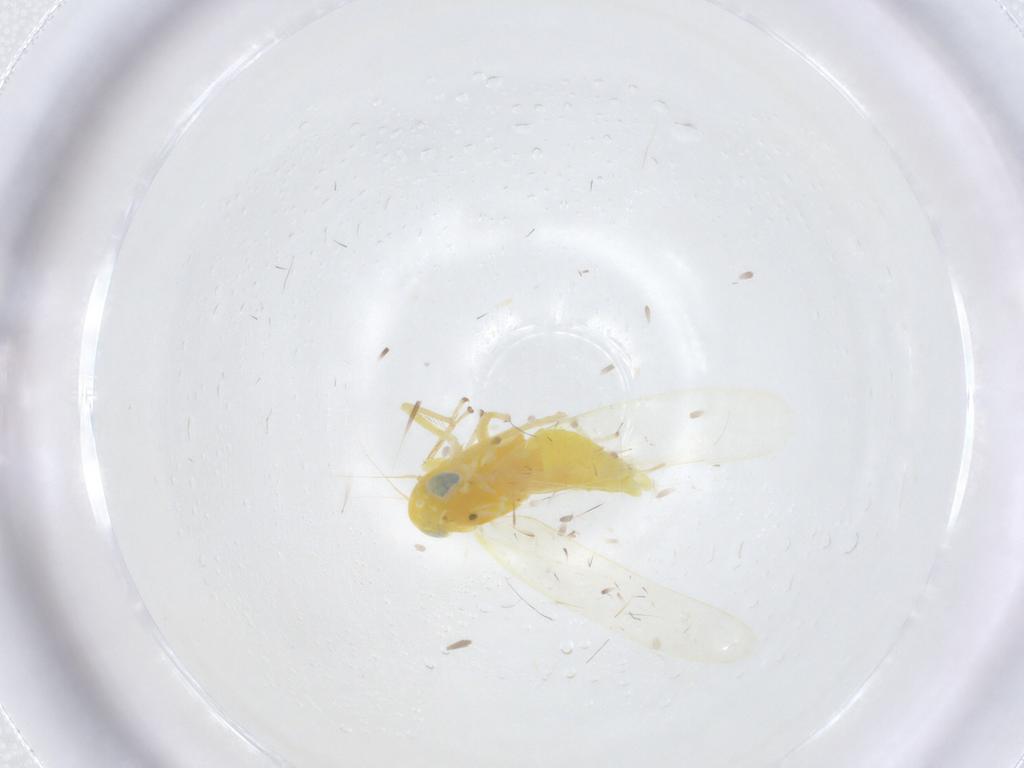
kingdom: Animalia
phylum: Arthropoda
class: Insecta
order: Hemiptera
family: Cicadellidae
